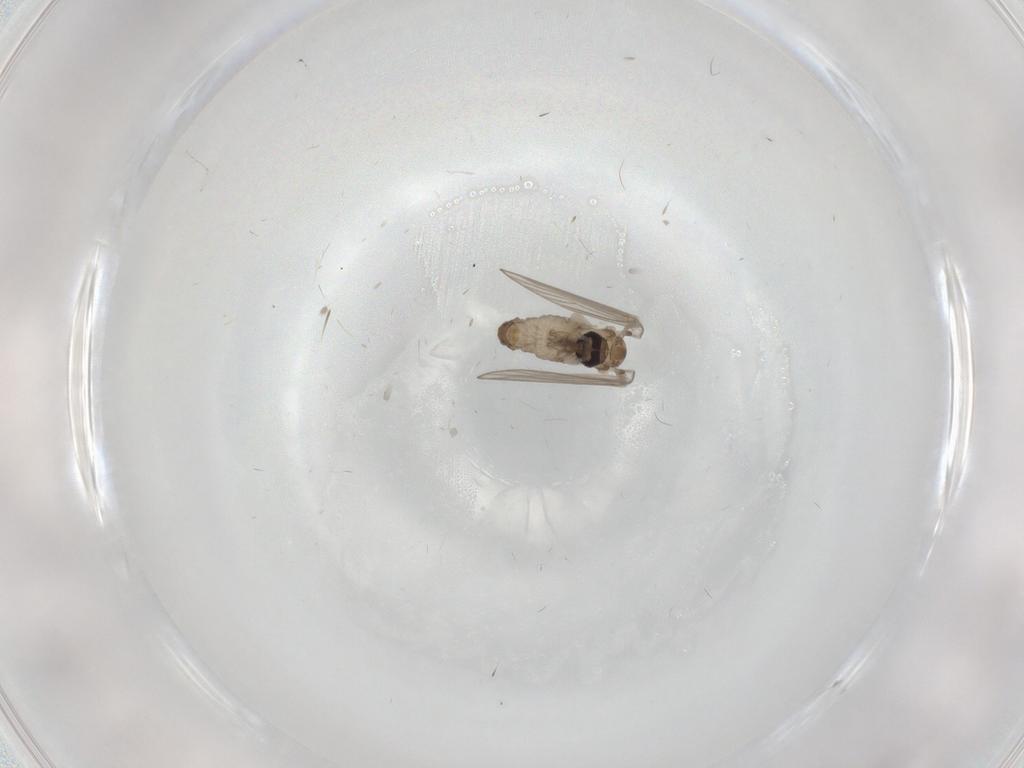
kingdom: Animalia
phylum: Arthropoda
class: Insecta
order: Diptera
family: Psychodidae
